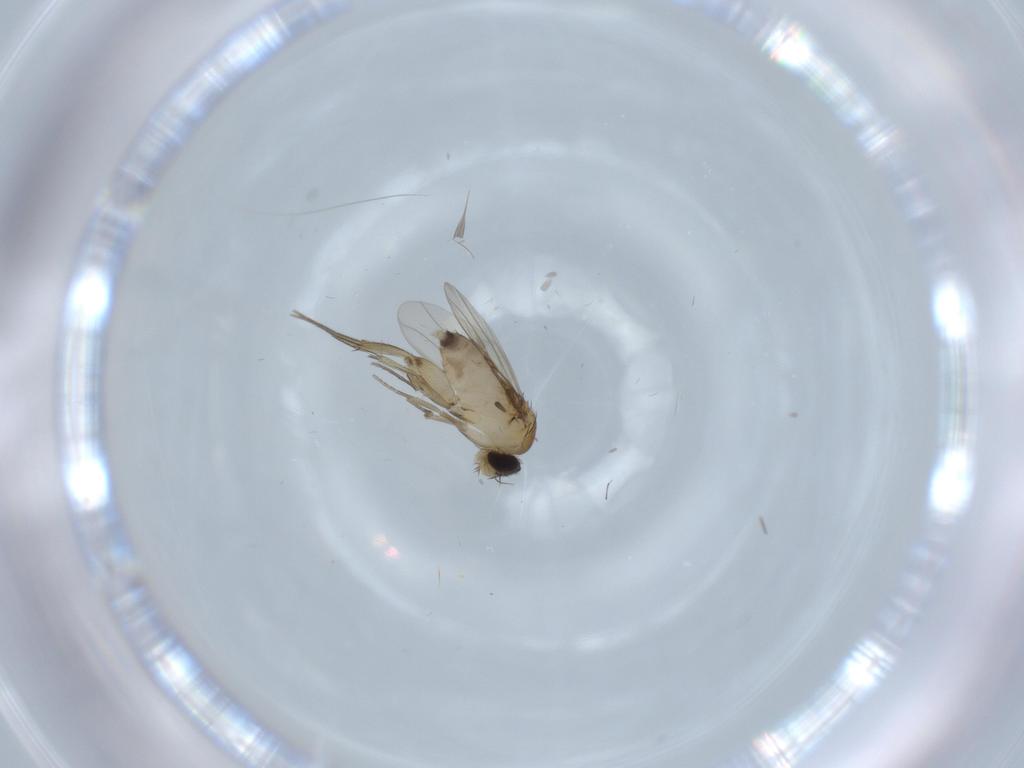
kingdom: Animalia
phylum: Arthropoda
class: Insecta
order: Diptera
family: Phoridae
